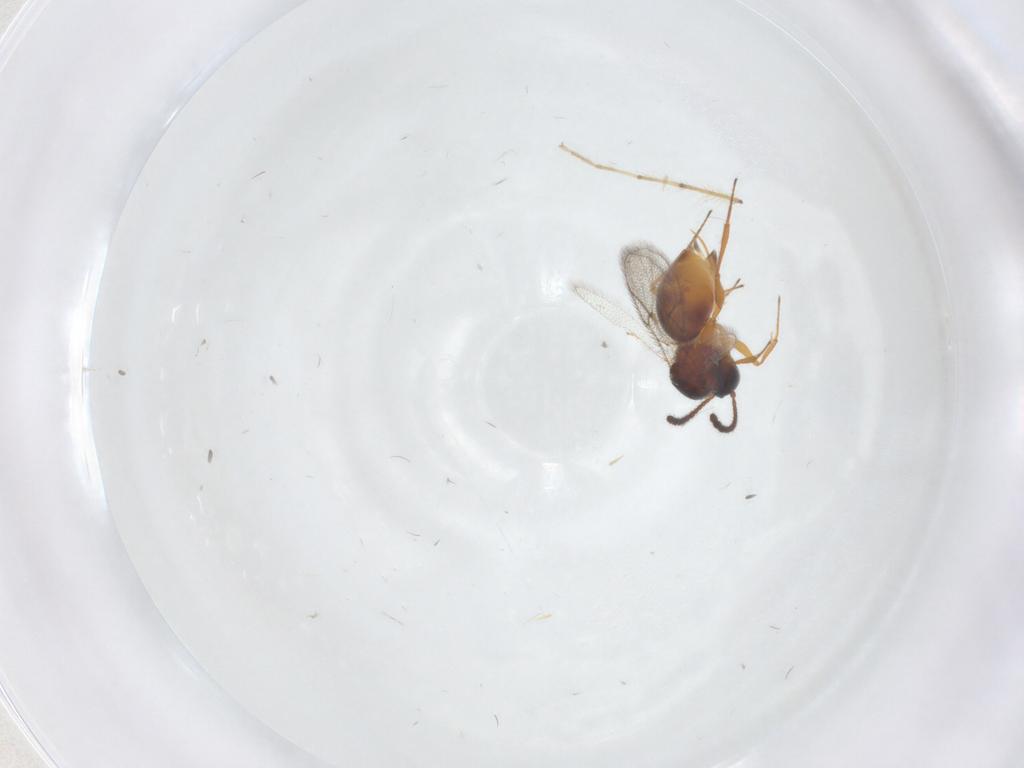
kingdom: Animalia
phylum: Arthropoda
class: Insecta
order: Hymenoptera
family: Figitidae
